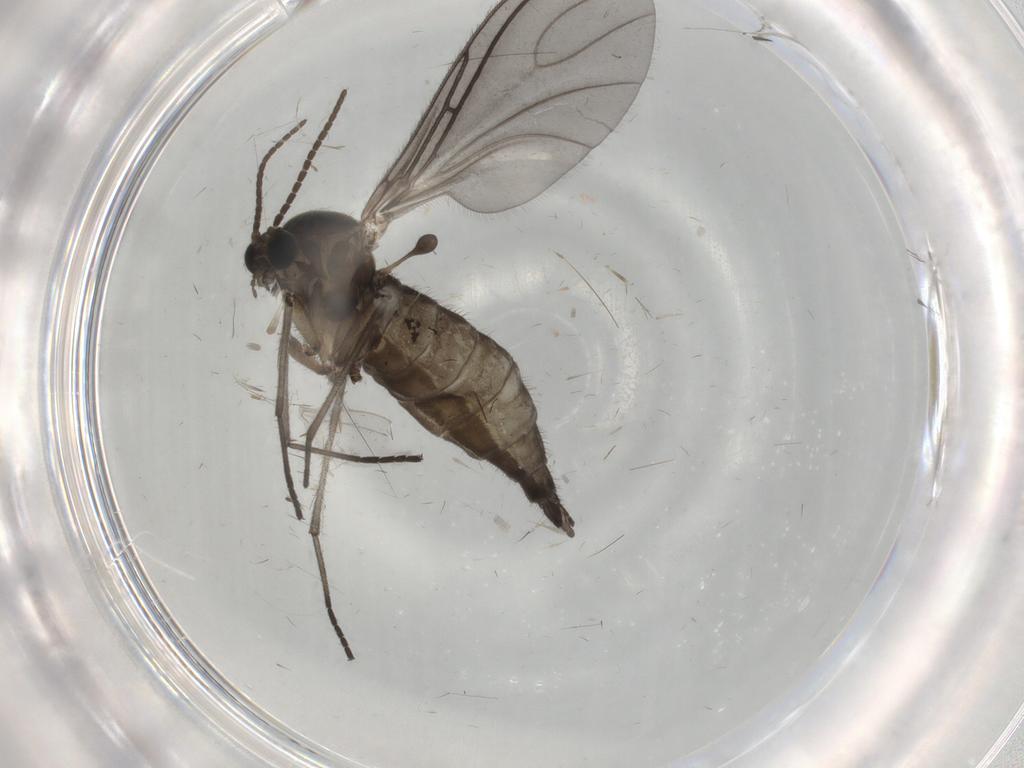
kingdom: Animalia
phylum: Arthropoda
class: Insecta
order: Diptera
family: Sciaridae
